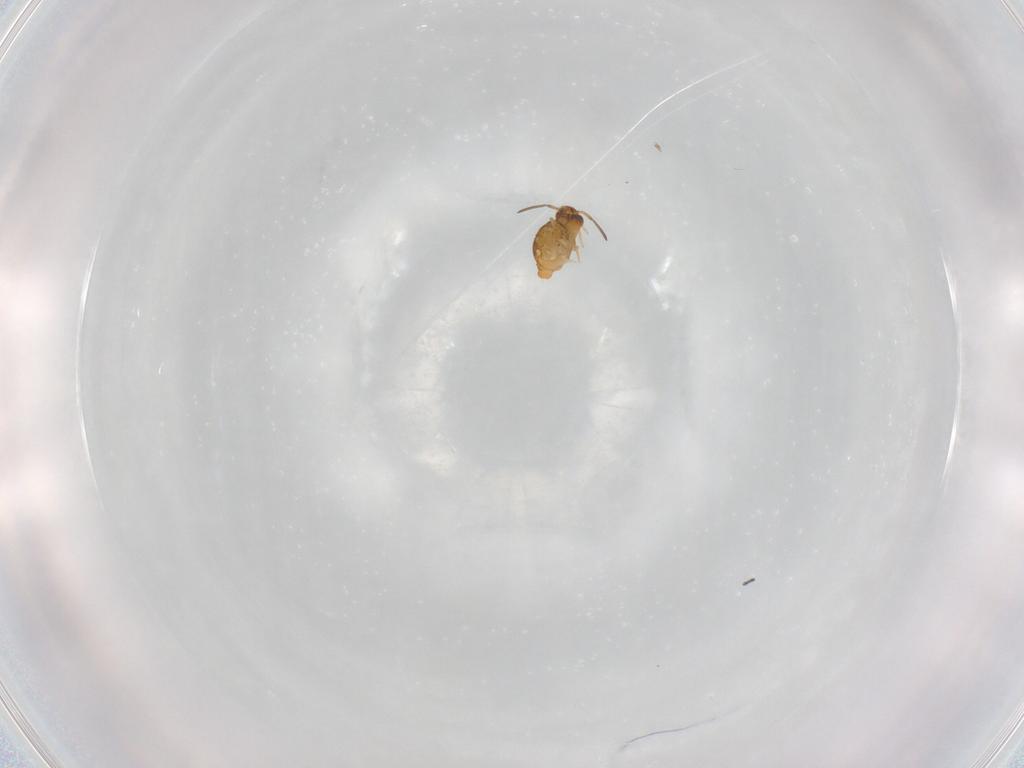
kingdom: Animalia
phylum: Arthropoda
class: Collembola
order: Symphypleona
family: Katiannidae
